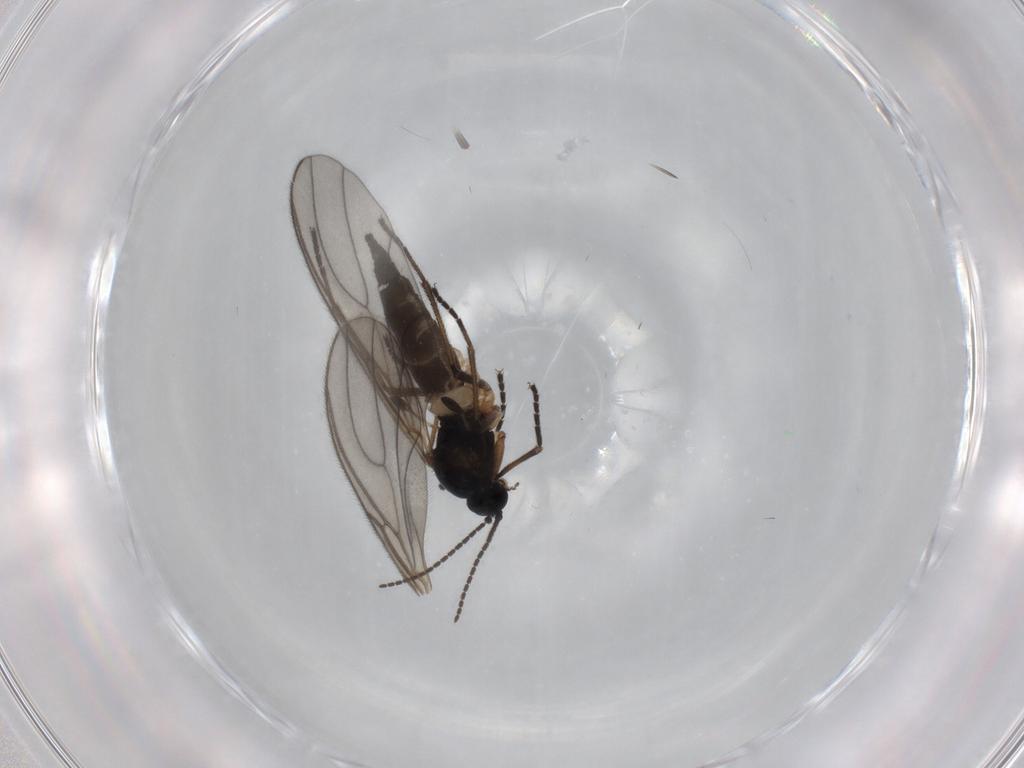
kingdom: Animalia
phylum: Arthropoda
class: Insecta
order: Diptera
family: Sciaridae
